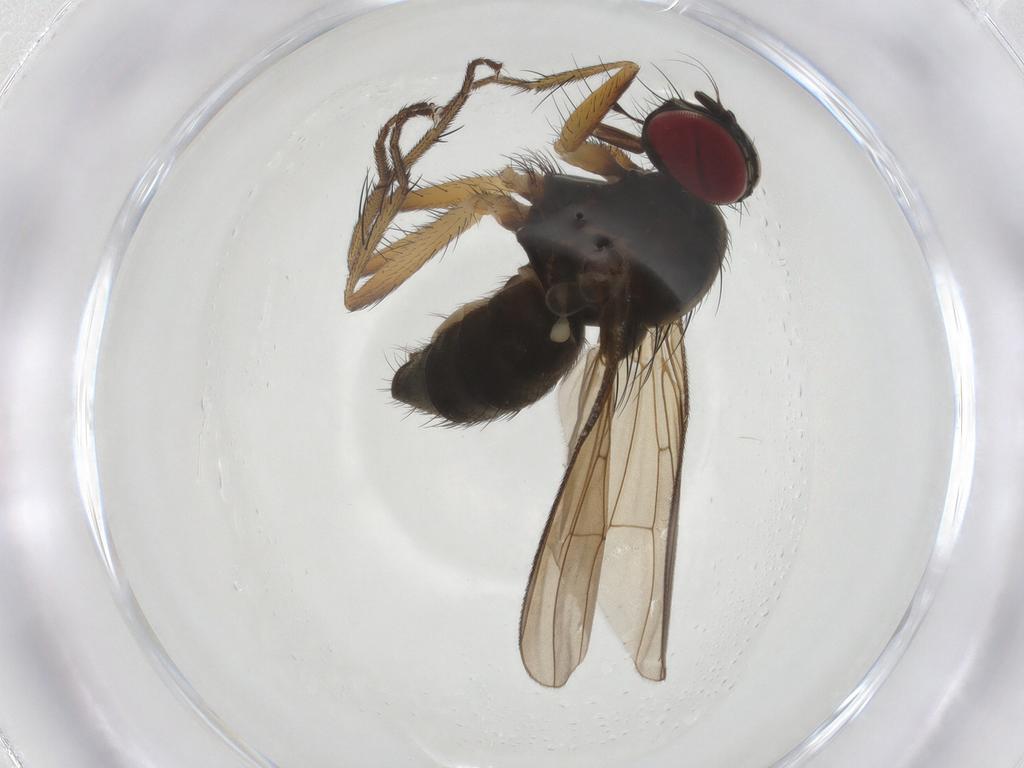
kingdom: Animalia
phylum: Arthropoda
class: Insecta
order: Diptera
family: Muscidae
